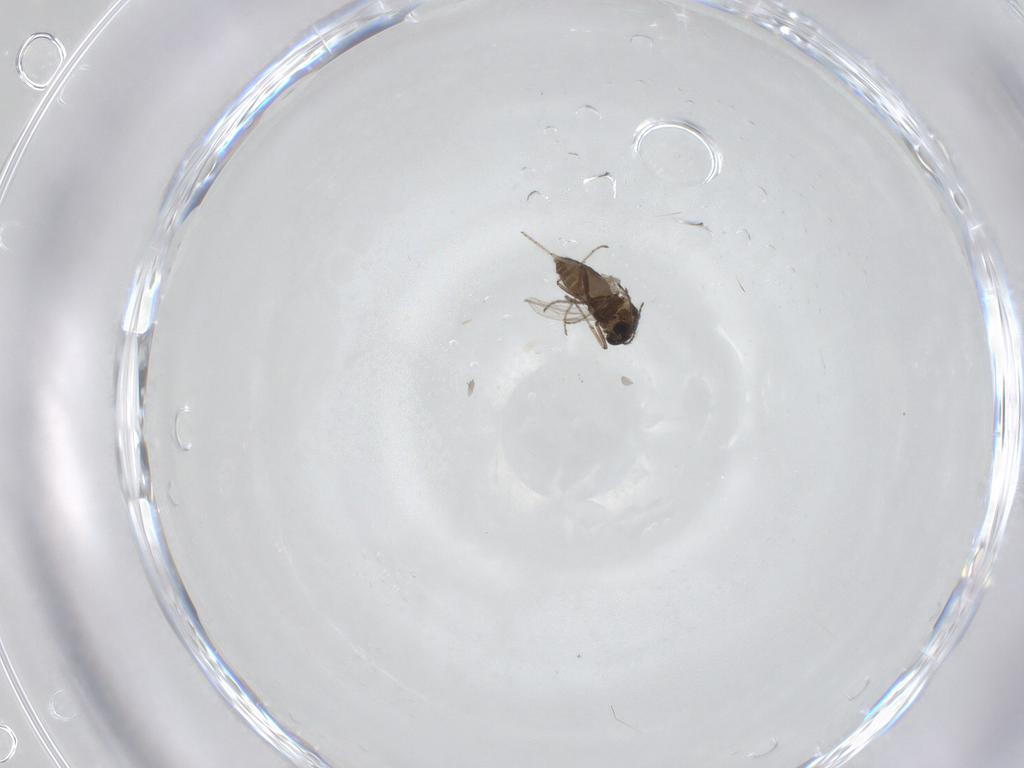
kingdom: Animalia
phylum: Arthropoda
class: Insecta
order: Diptera
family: Ceratopogonidae
